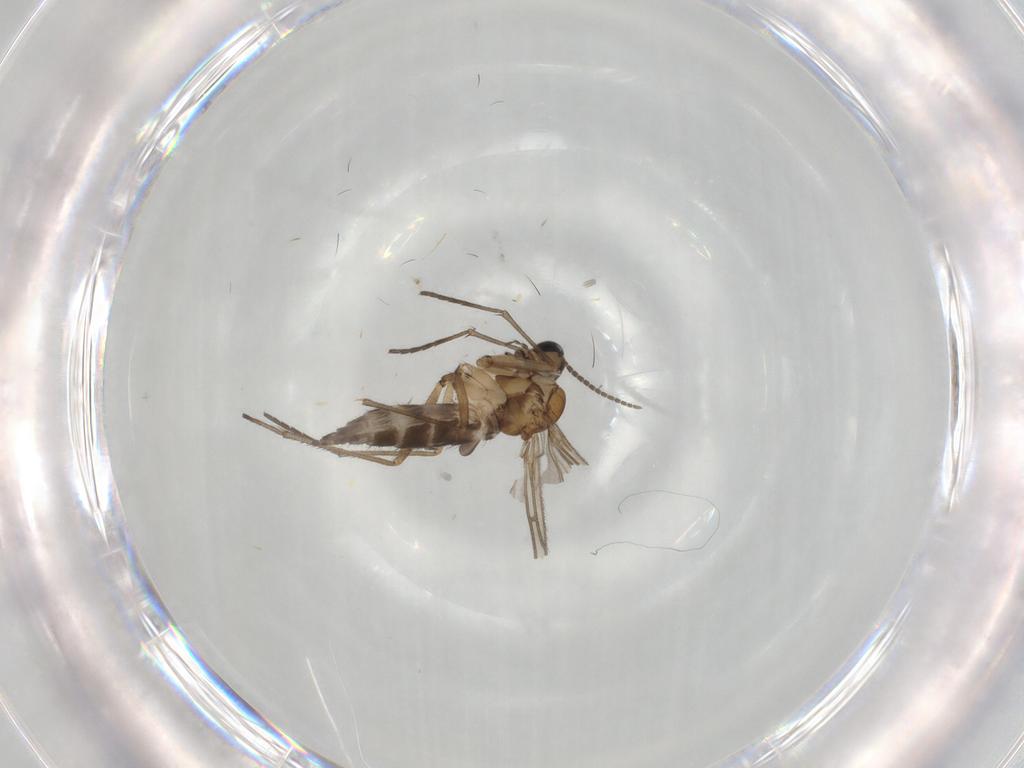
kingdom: Animalia
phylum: Arthropoda
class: Insecta
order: Diptera
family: Sciaridae
